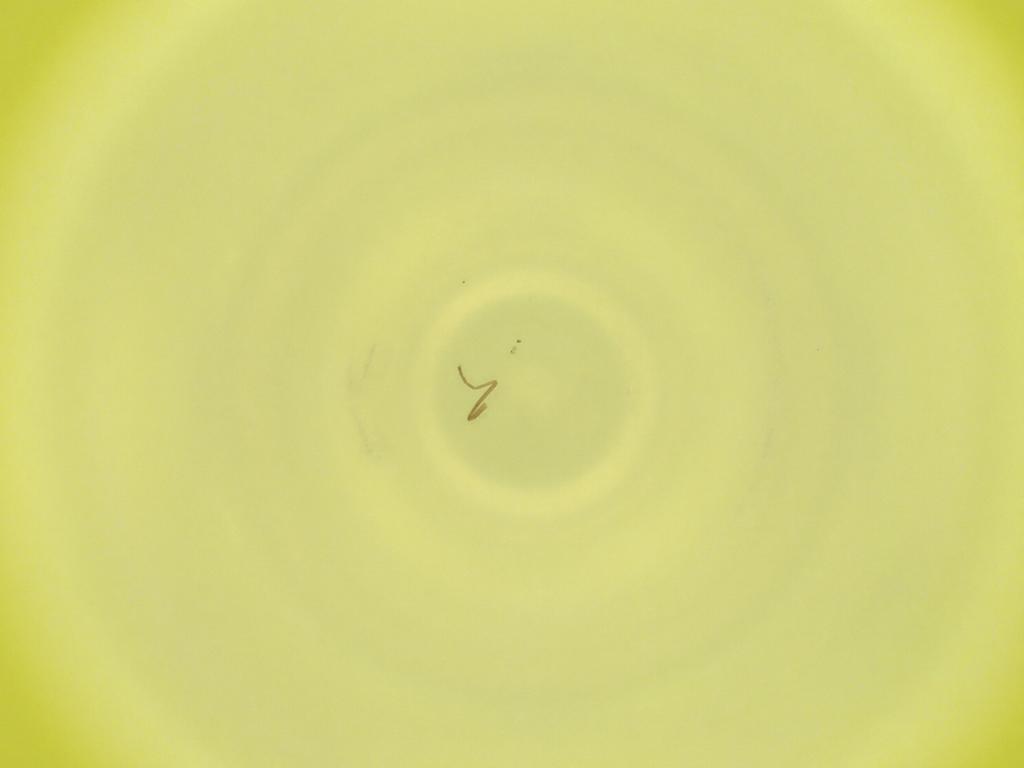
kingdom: Animalia
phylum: Arthropoda
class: Insecta
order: Diptera
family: Cecidomyiidae
